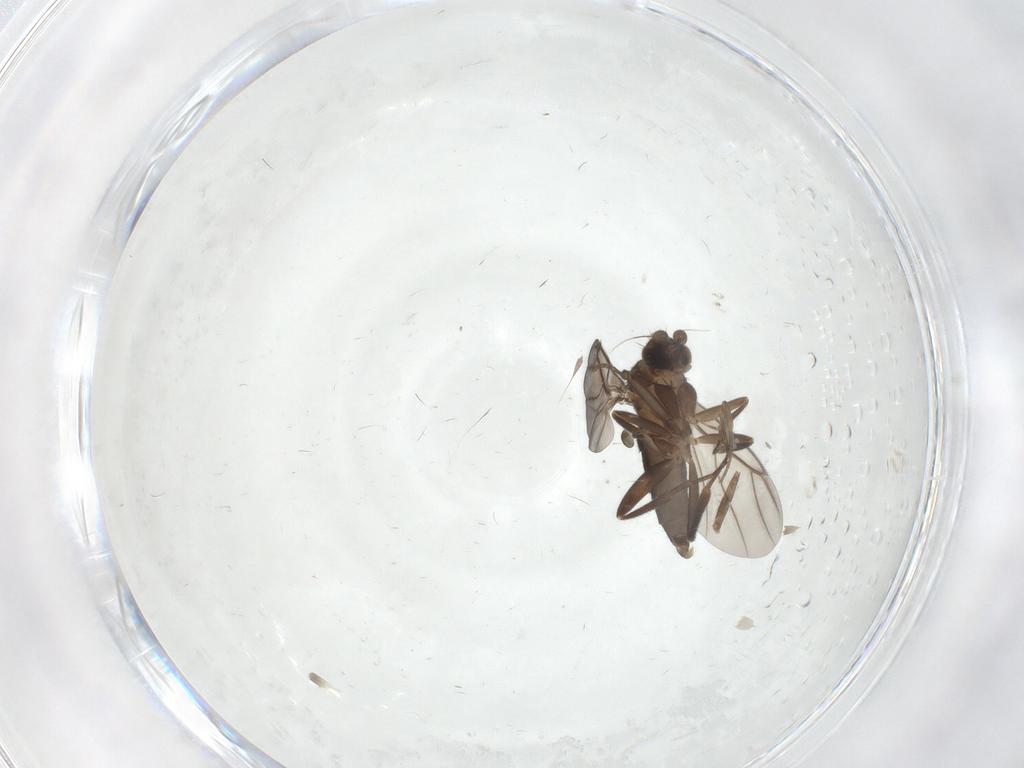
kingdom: Animalia
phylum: Arthropoda
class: Insecta
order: Diptera
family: Phoridae
